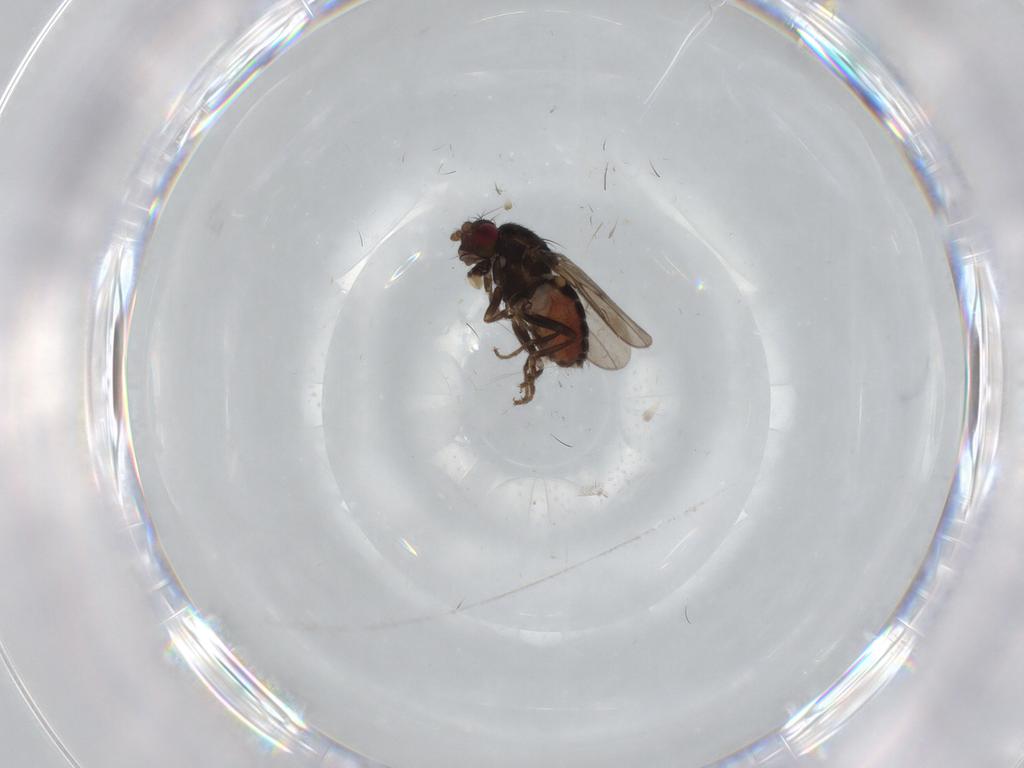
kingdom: Animalia
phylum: Arthropoda
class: Insecta
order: Diptera
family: Sphaeroceridae
